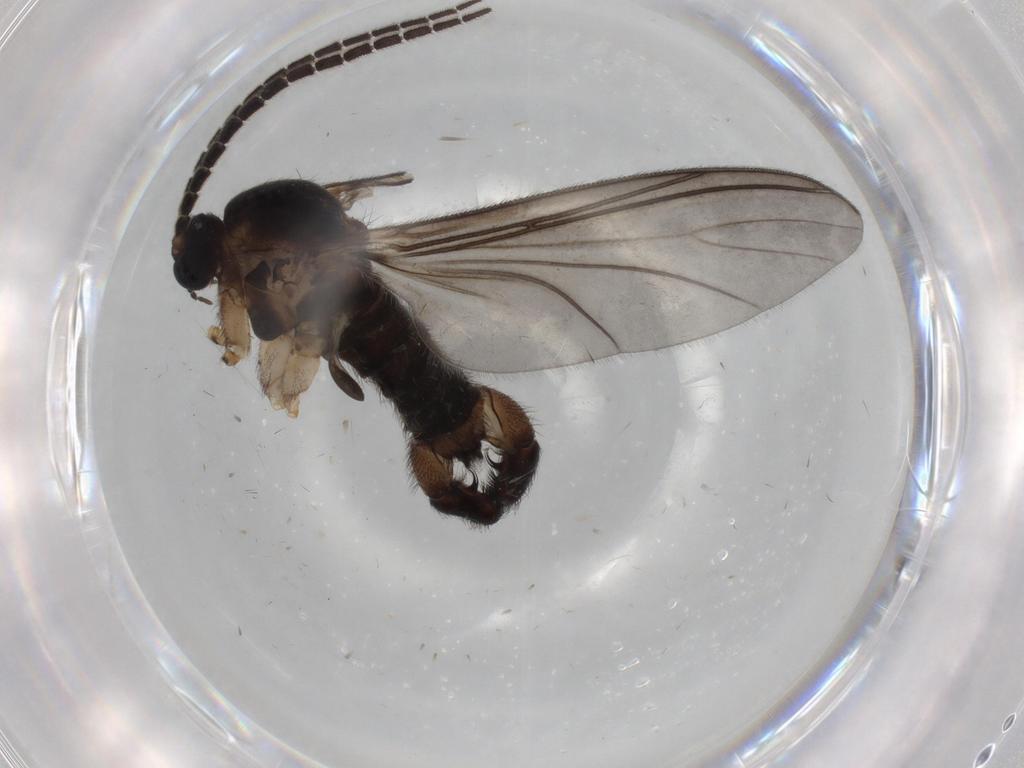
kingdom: Animalia
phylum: Arthropoda
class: Insecta
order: Diptera
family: Sciaridae
